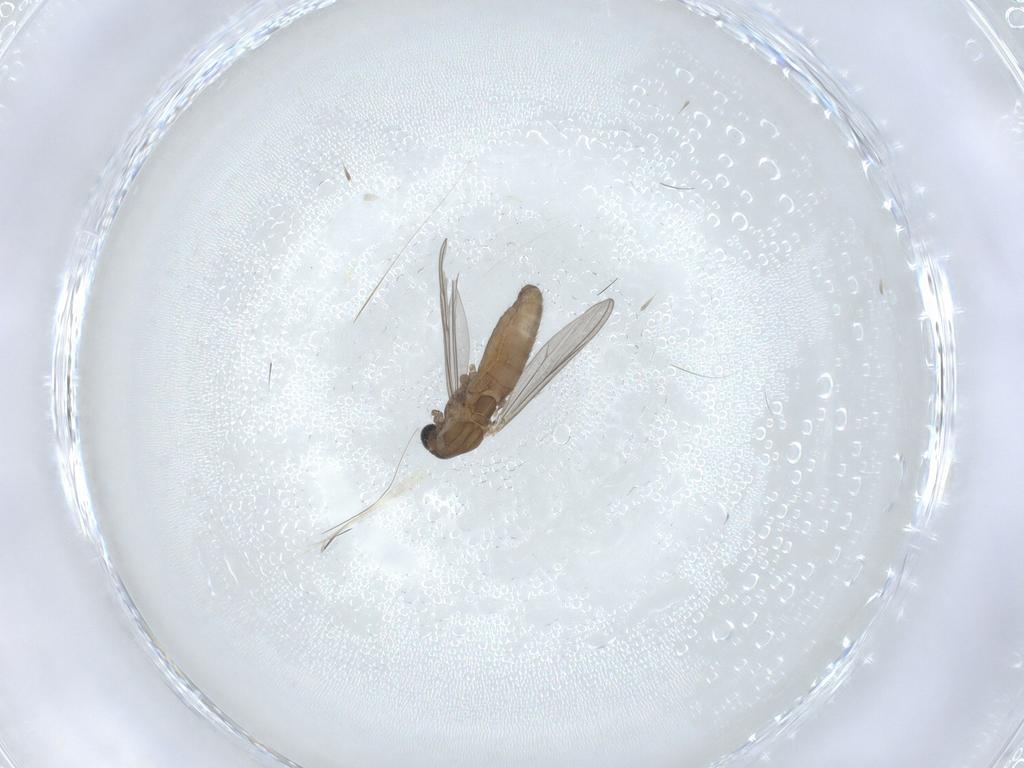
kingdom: Animalia
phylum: Arthropoda
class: Insecta
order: Diptera
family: Chironomidae
